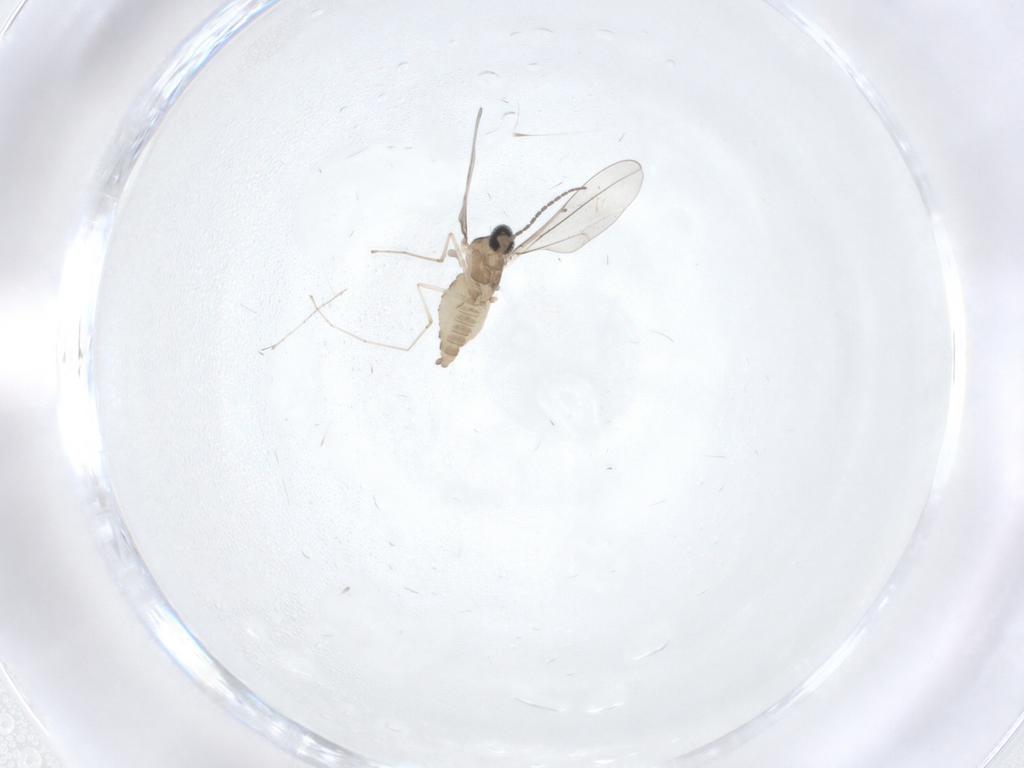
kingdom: Animalia
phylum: Arthropoda
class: Insecta
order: Diptera
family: Cecidomyiidae
